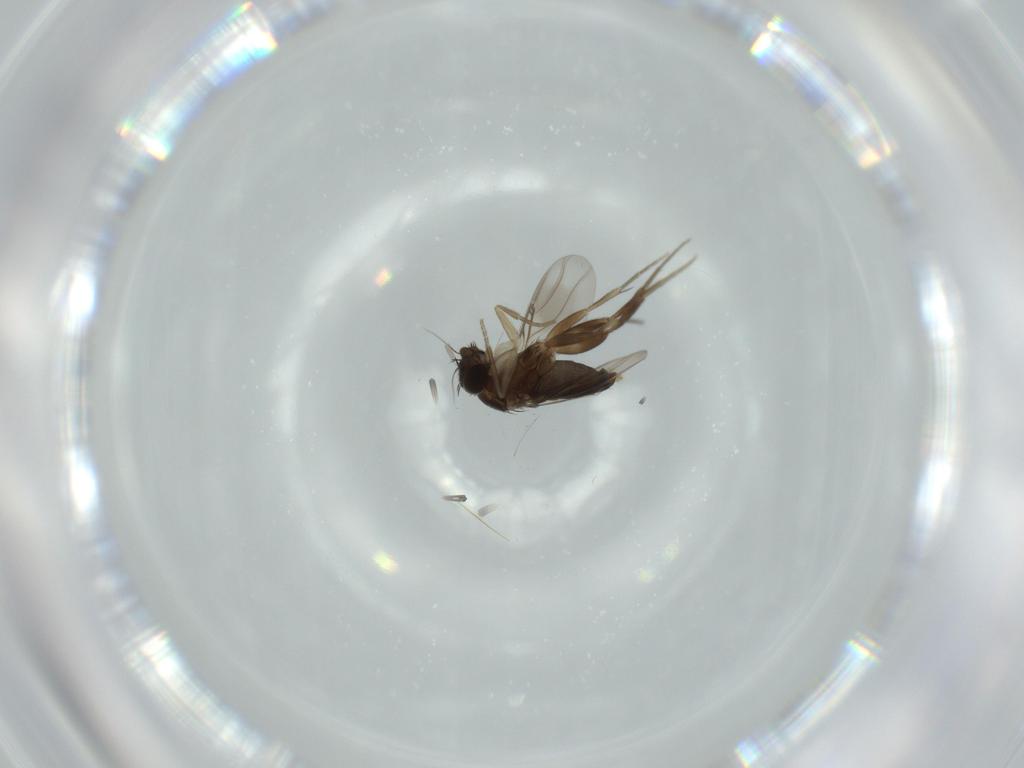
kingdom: Animalia
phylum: Arthropoda
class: Insecta
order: Diptera
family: Phoridae
